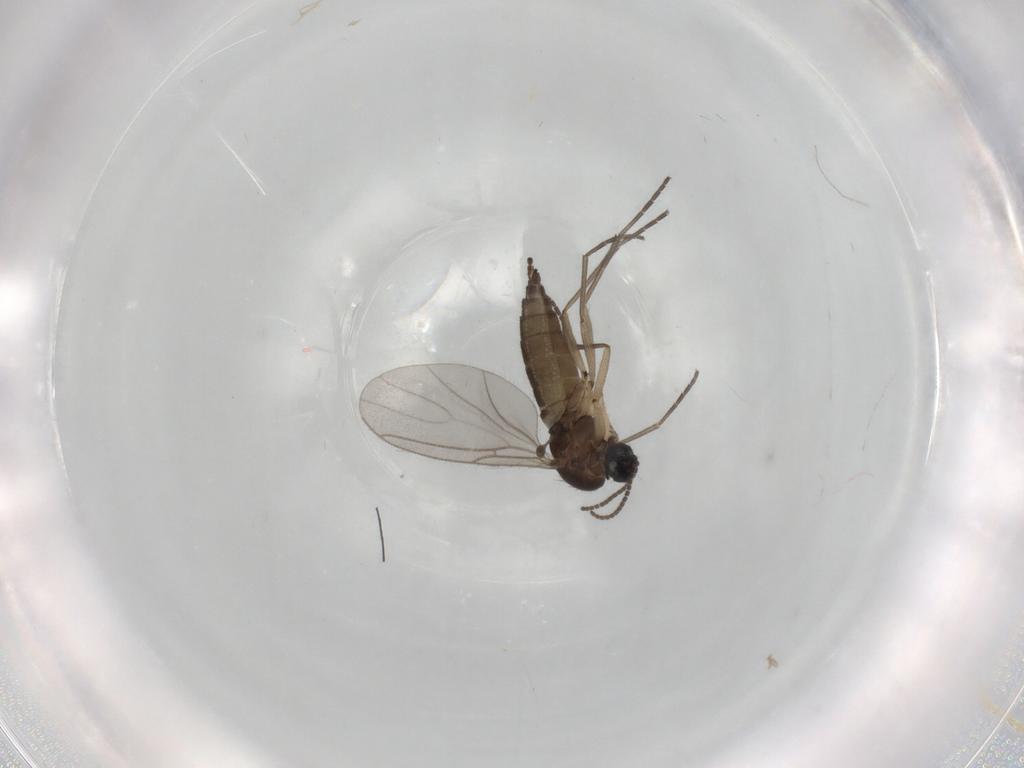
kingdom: Animalia
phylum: Arthropoda
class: Insecta
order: Diptera
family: Sciaridae
